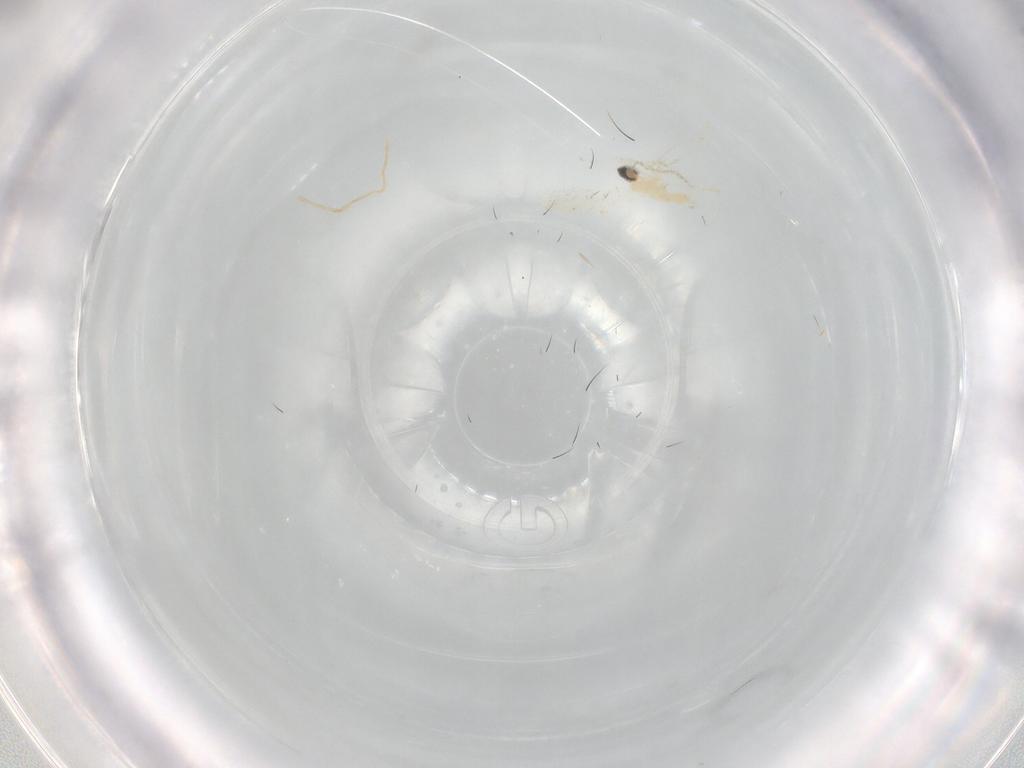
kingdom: Animalia
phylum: Arthropoda
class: Insecta
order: Diptera
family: Cecidomyiidae
